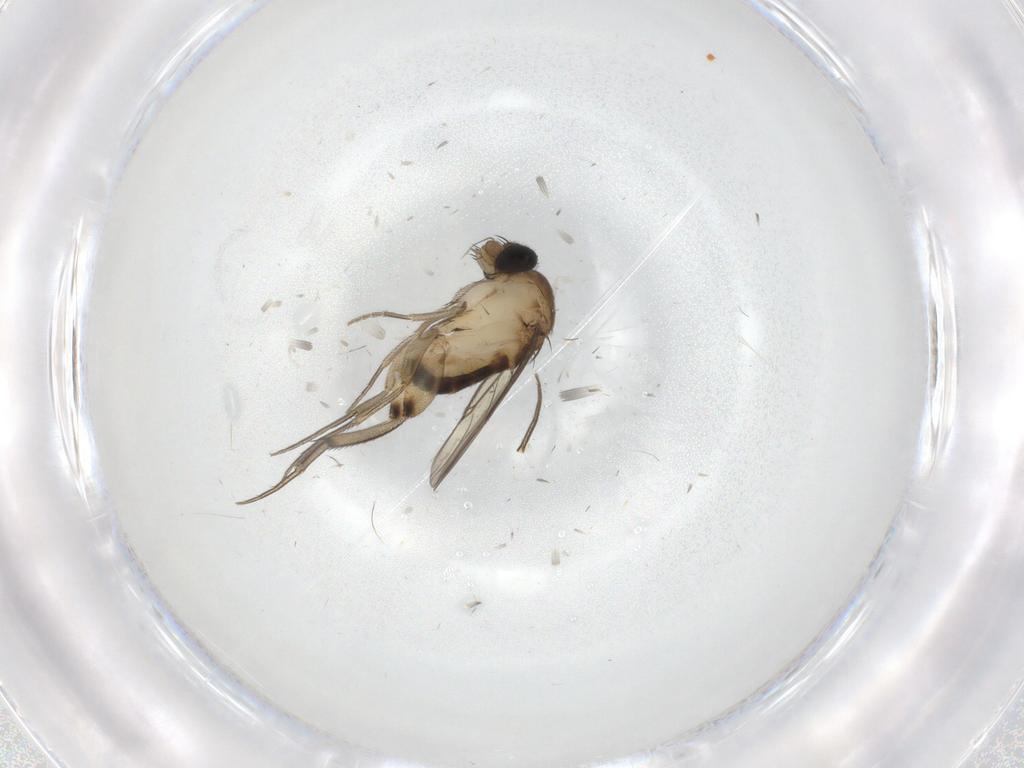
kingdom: Animalia
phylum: Arthropoda
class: Insecta
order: Diptera
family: Phoridae
